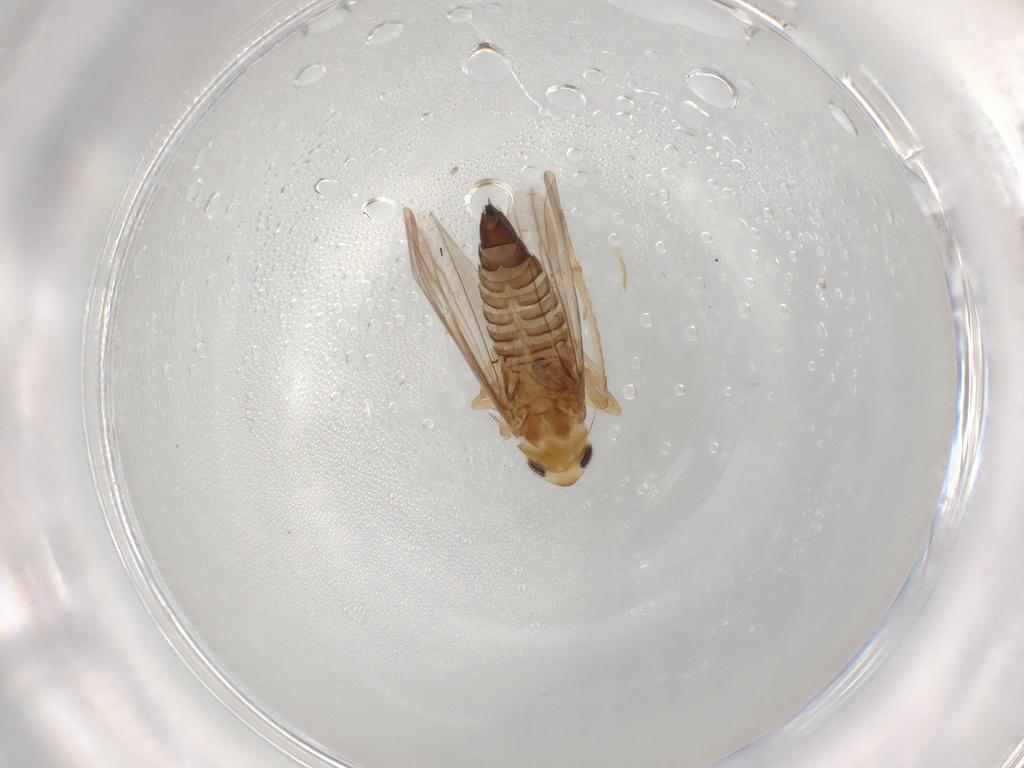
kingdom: Animalia
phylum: Arthropoda
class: Insecta
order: Hemiptera
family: Cicadellidae
